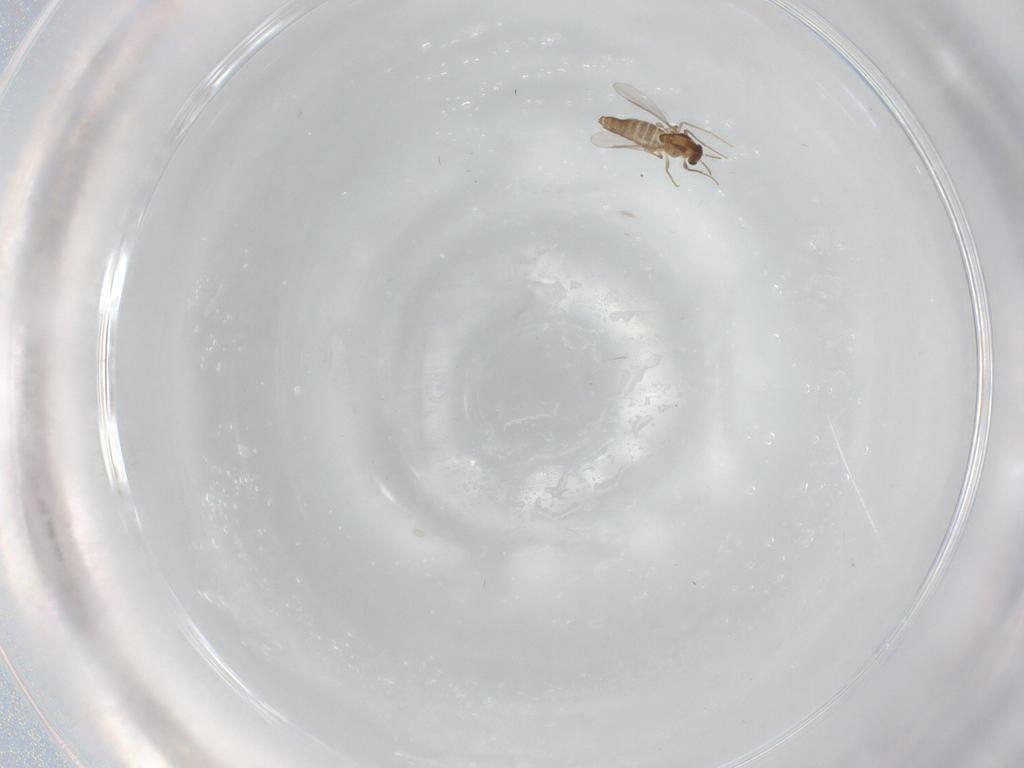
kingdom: Animalia
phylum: Arthropoda
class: Insecta
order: Diptera
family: Chironomidae
